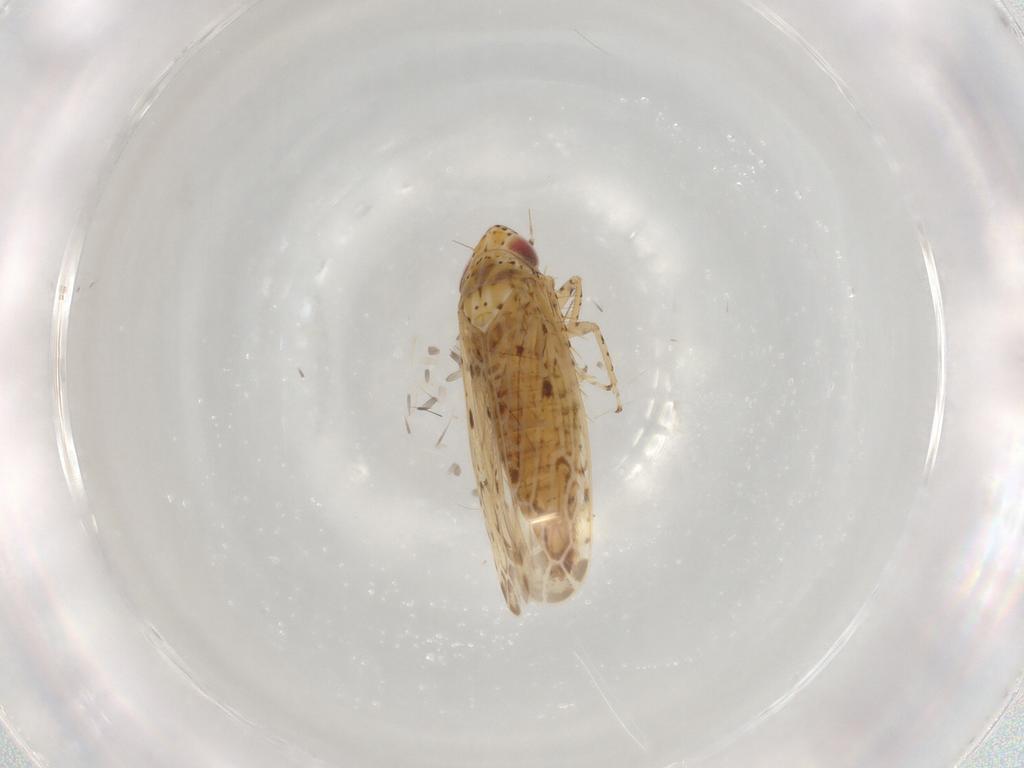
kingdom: Animalia
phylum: Arthropoda
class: Insecta
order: Hemiptera
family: Cicadellidae
